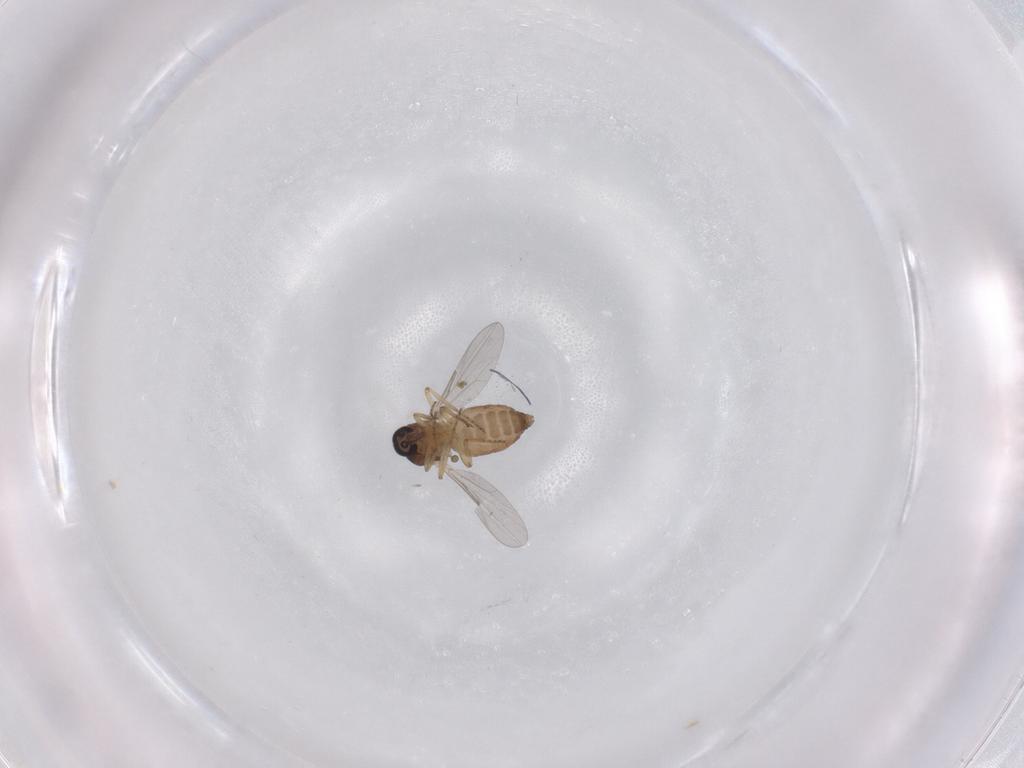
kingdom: Animalia
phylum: Arthropoda
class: Insecta
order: Diptera
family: Ceratopogonidae
